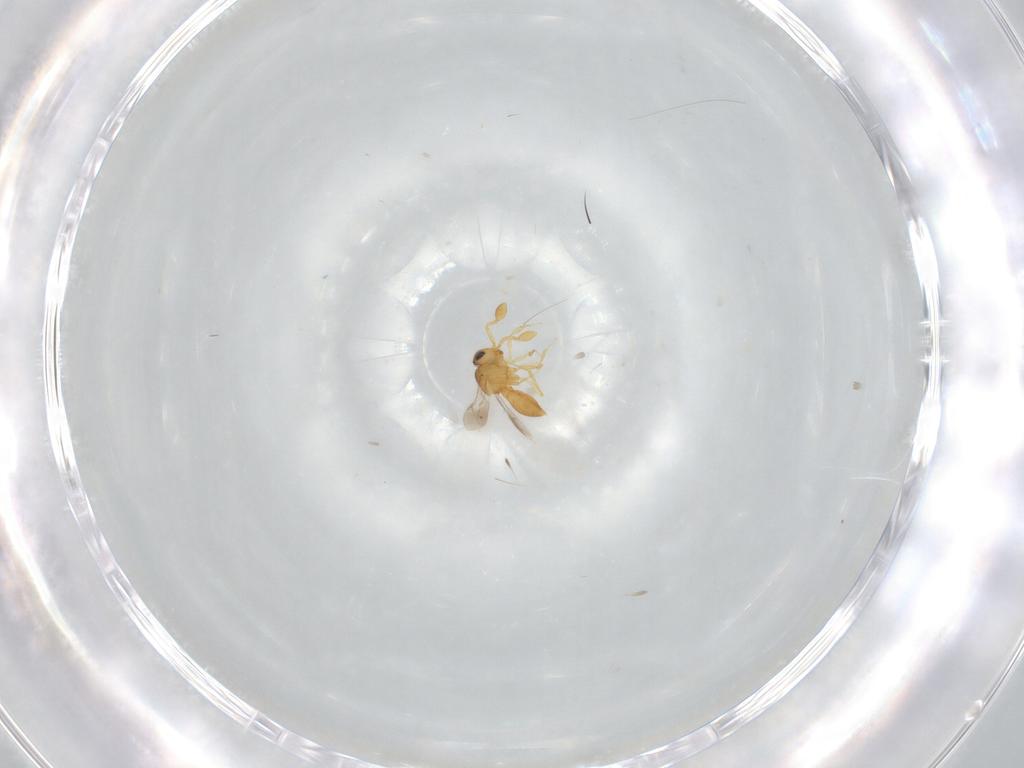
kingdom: Animalia
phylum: Arthropoda
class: Insecta
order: Hymenoptera
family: Scelionidae
